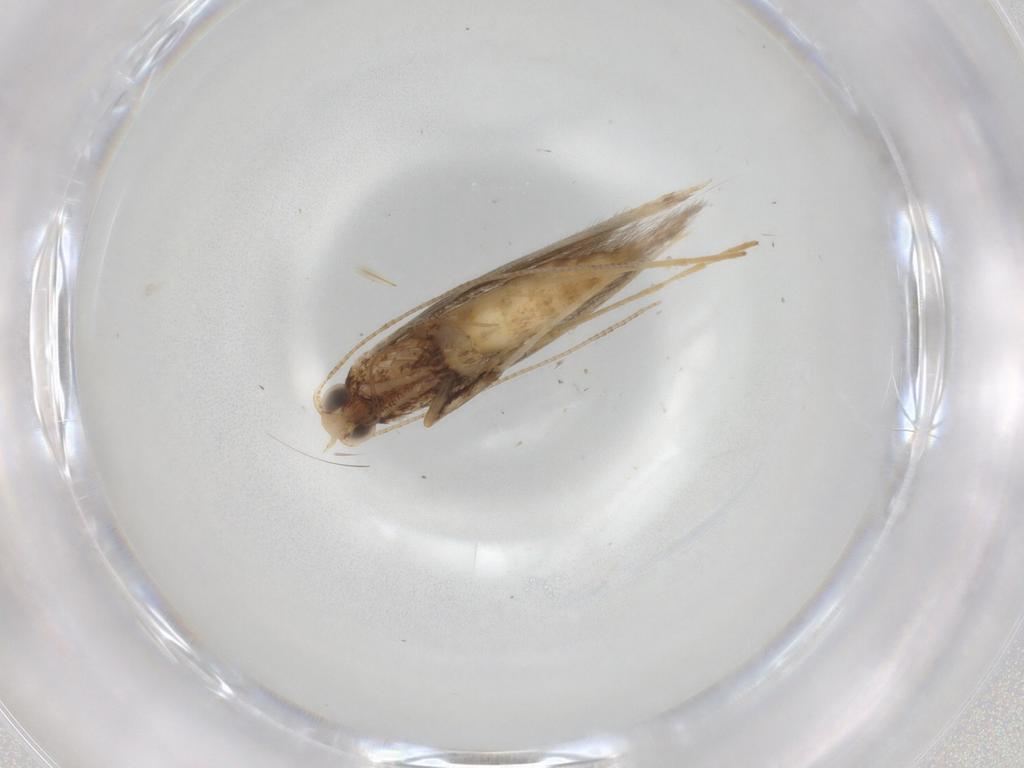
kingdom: Animalia
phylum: Arthropoda
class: Insecta
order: Lepidoptera
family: Gracillariidae
